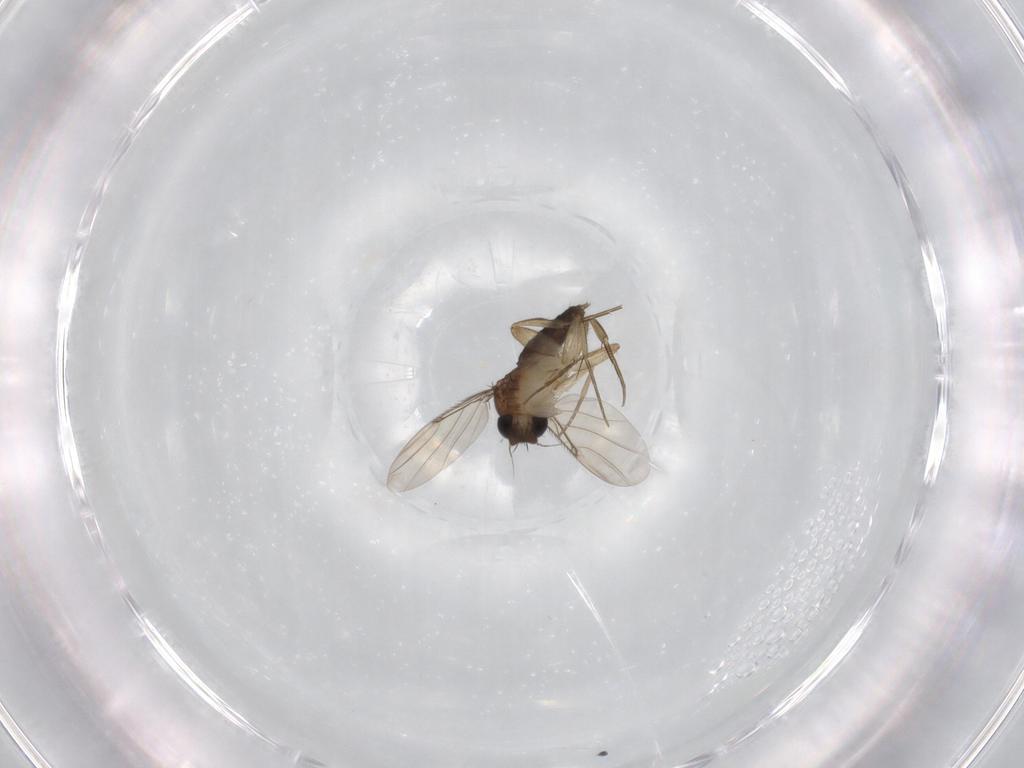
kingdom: Animalia
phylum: Arthropoda
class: Insecta
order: Diptera
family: Phoridae
